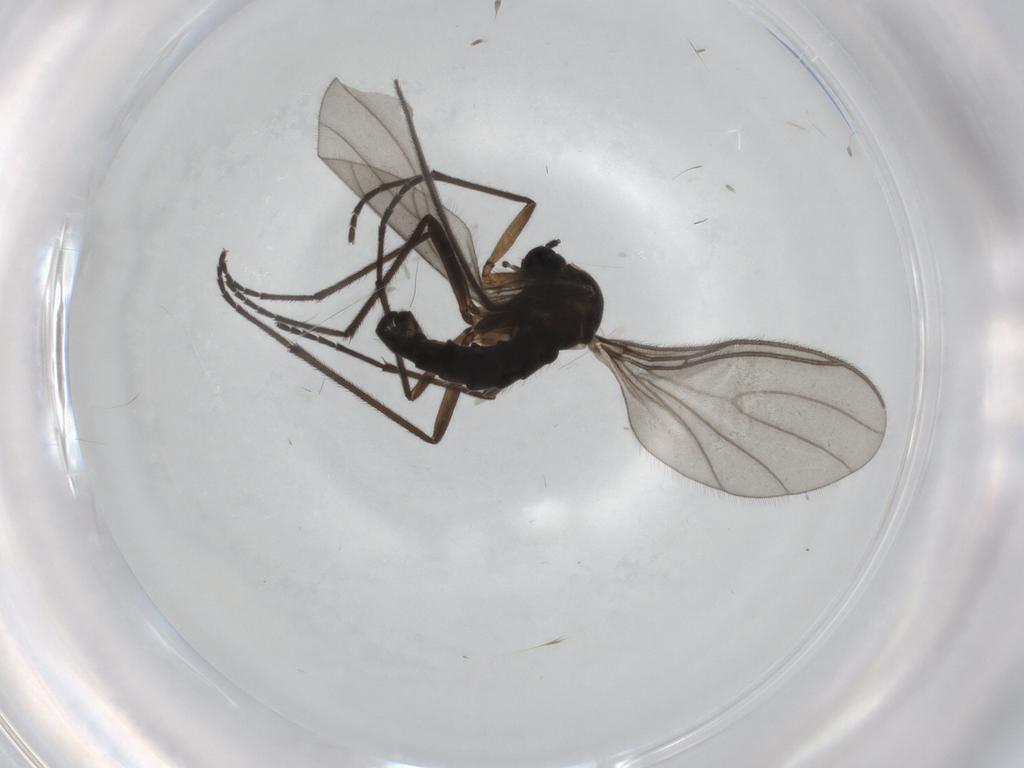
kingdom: Animalia
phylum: Arthropoda
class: Insecta
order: Diptera
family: Sciaridae
